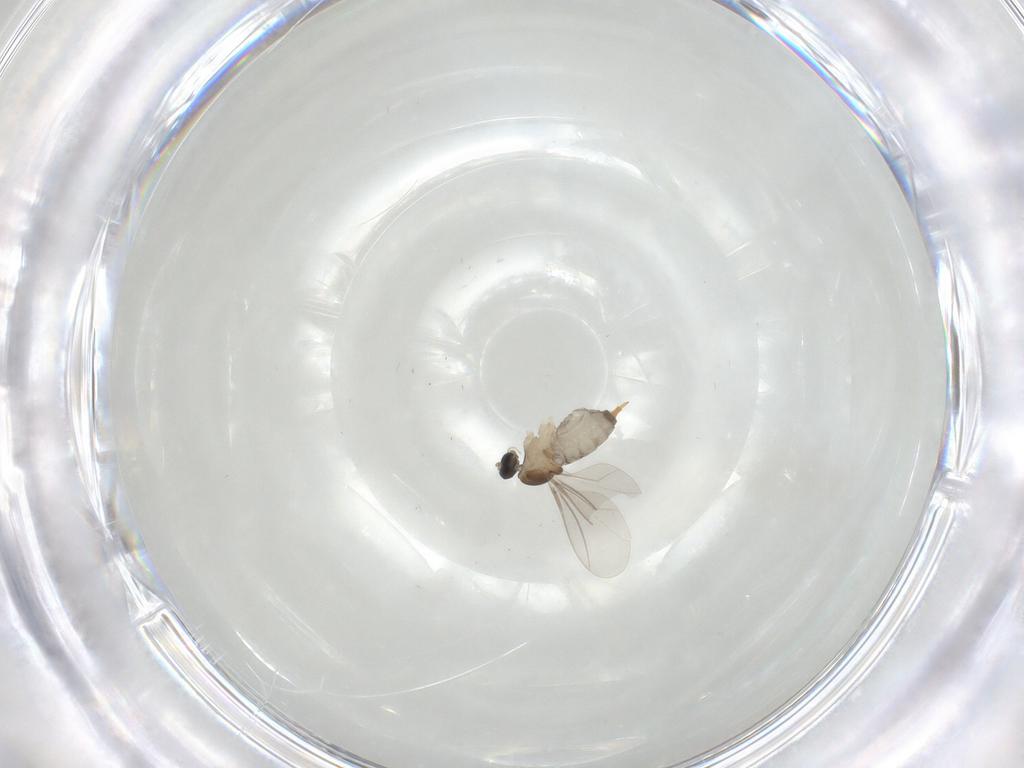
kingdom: Animalia
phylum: Arthropoda
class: Insecta
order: Diptera
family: Cecidomyiidae
